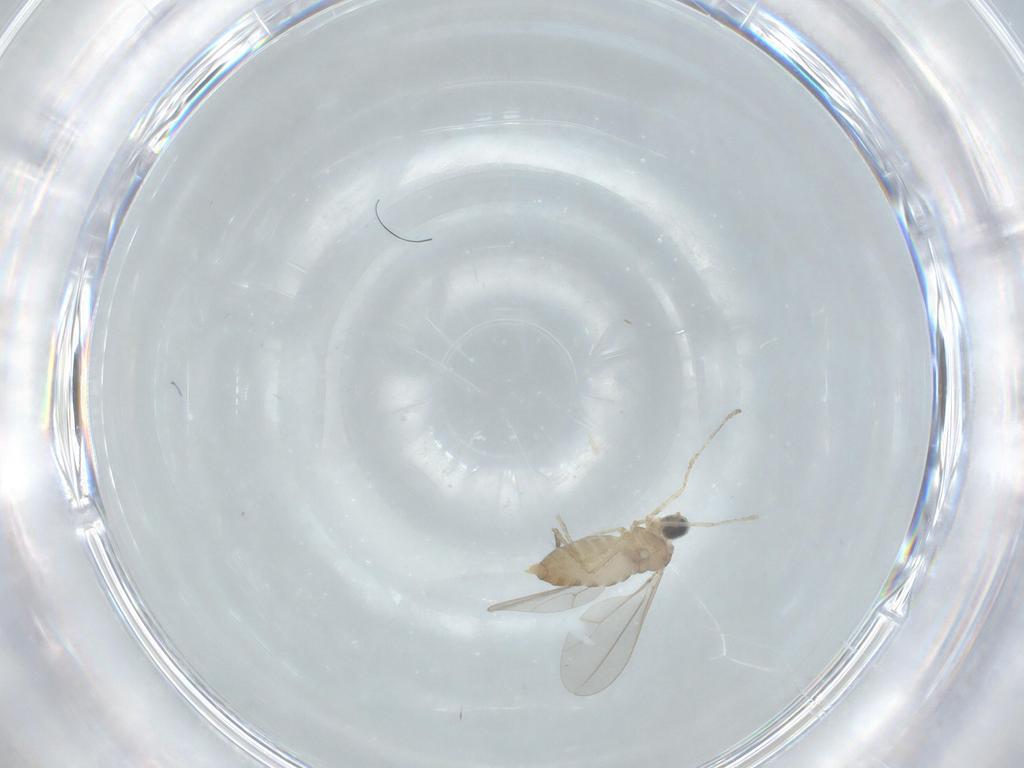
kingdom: Animalia
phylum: Arthropoda
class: Insecta
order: Diptera
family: Cecidomyiidae
